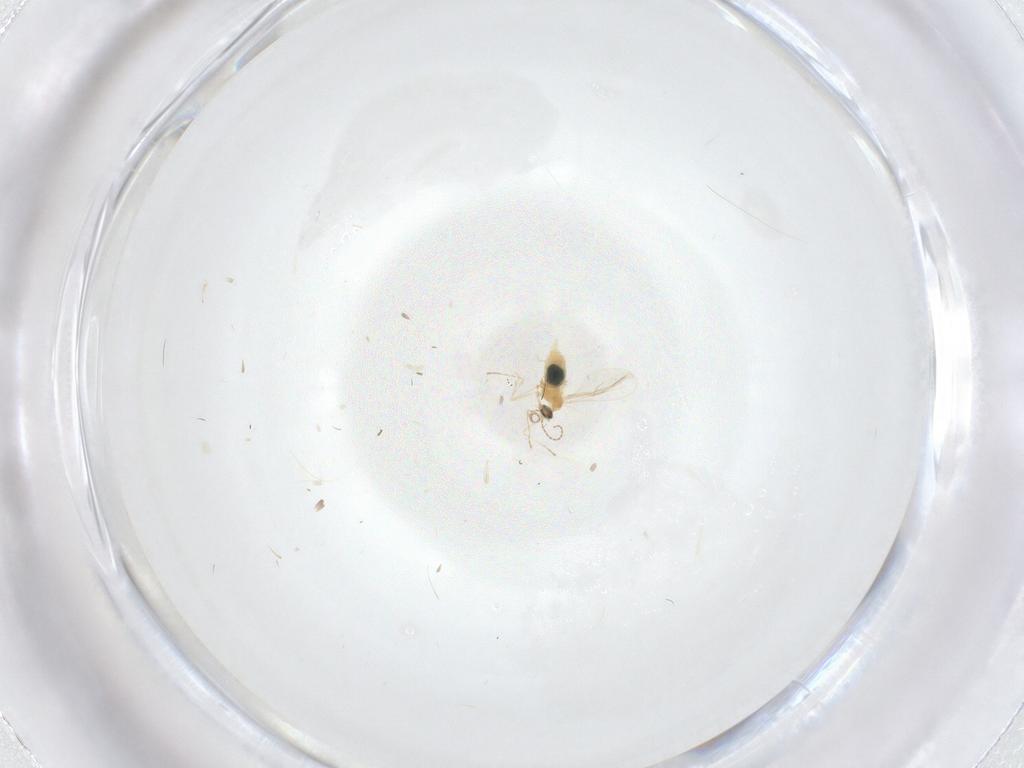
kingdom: Animalia
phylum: Arthropoda
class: Insecta
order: Diptera
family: Cecidomyiidae
